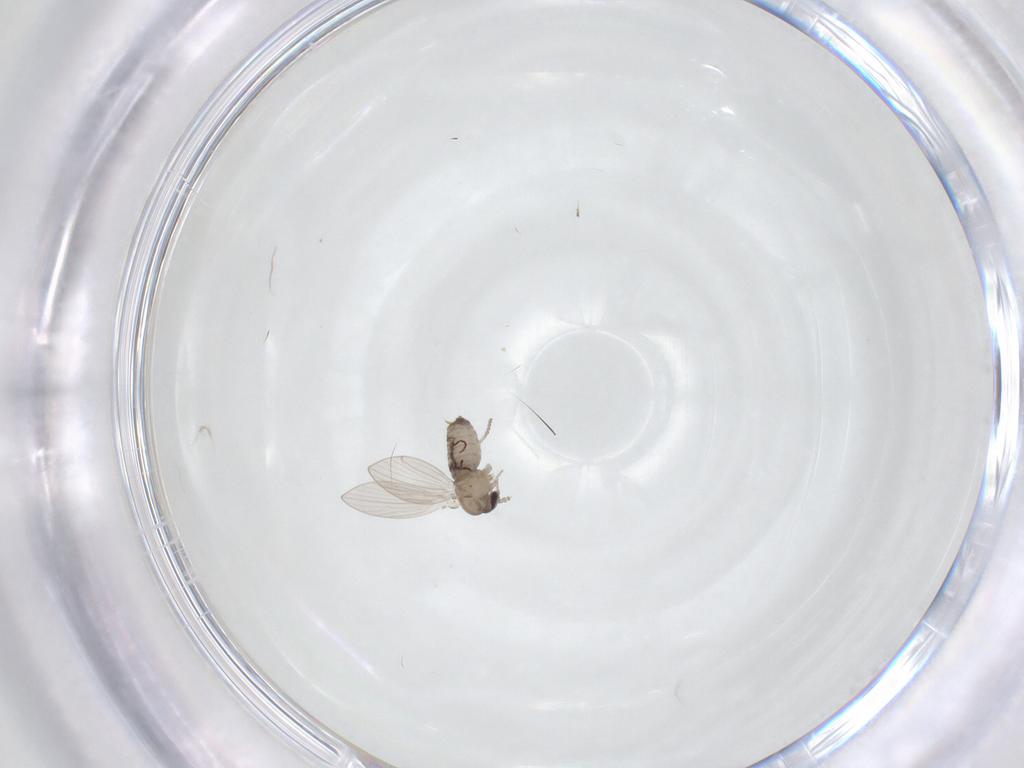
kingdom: Animalia
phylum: Arthropoda
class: Insecta
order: Diptera
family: Psychodidae
